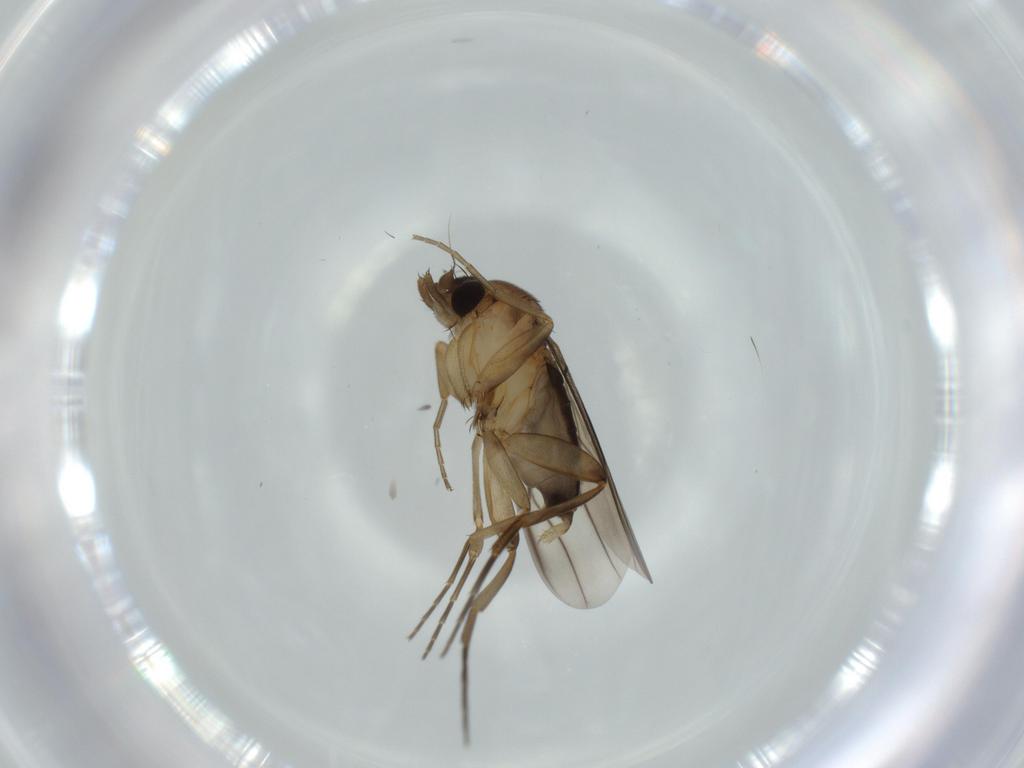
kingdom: Animalia
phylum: Arthropoda
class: Insecta
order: Diptera
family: Phoridae
